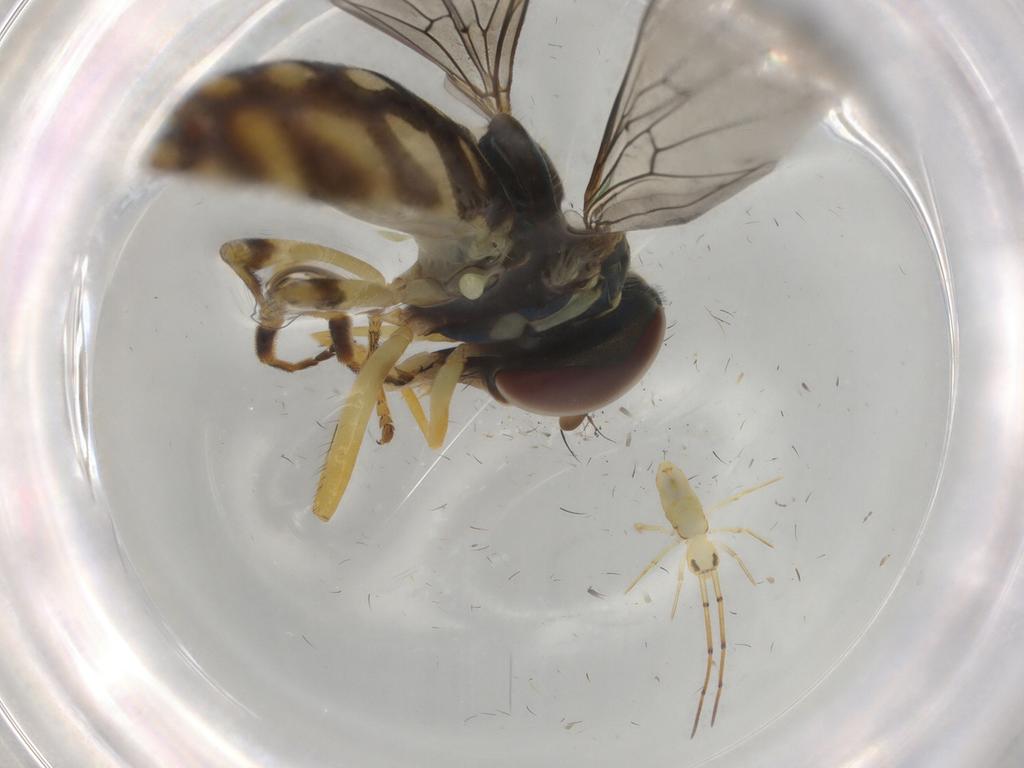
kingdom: Animalia
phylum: Arthropoda
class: Insecta
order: Diptera
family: Syrphidae
